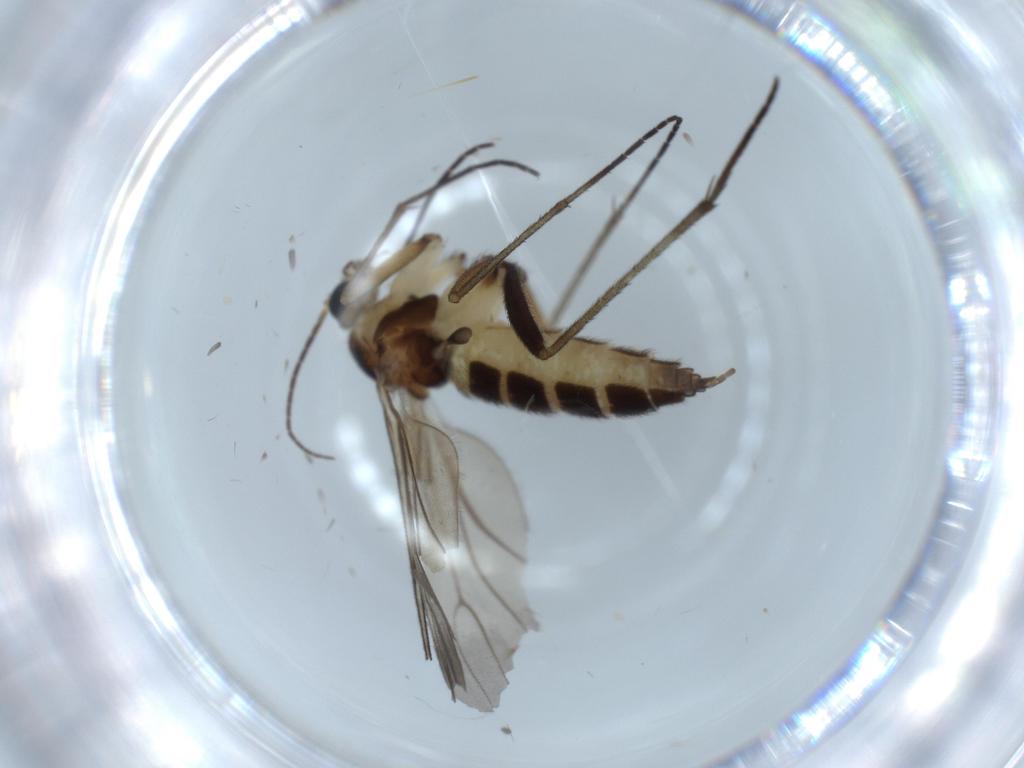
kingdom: Animalia
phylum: Arthropoda
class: Insecta
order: Diptera
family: Sciaridae
